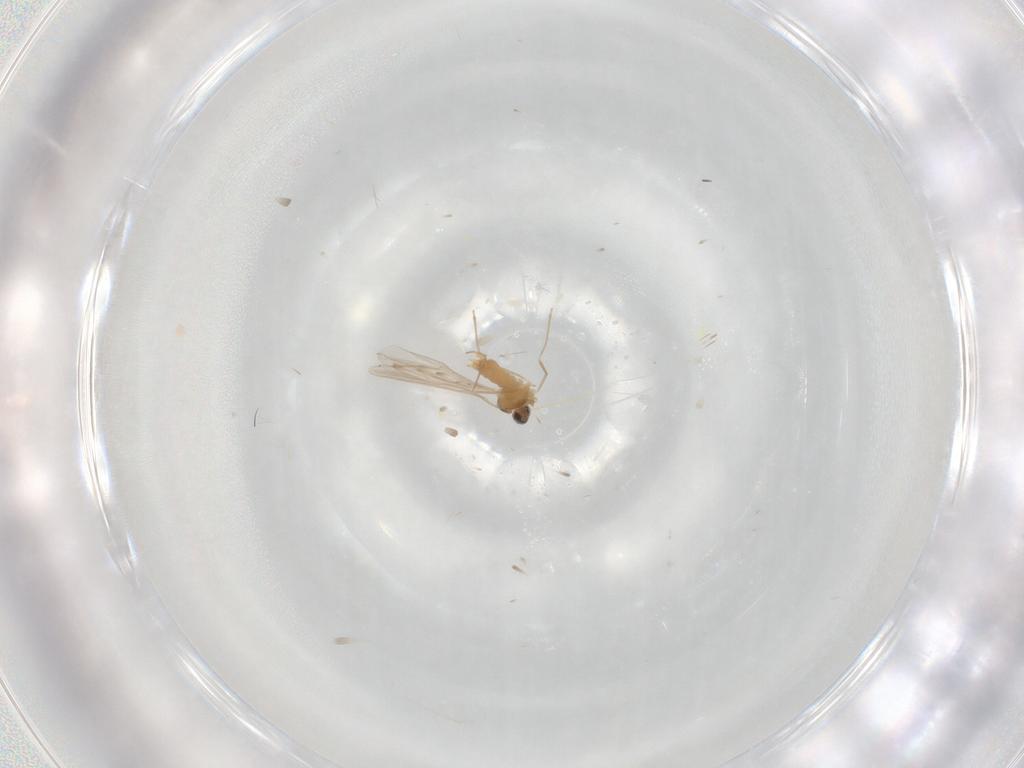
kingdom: Animalia
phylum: Arthropoda
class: Insecta
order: Diptera
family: Cecidomyiidae
